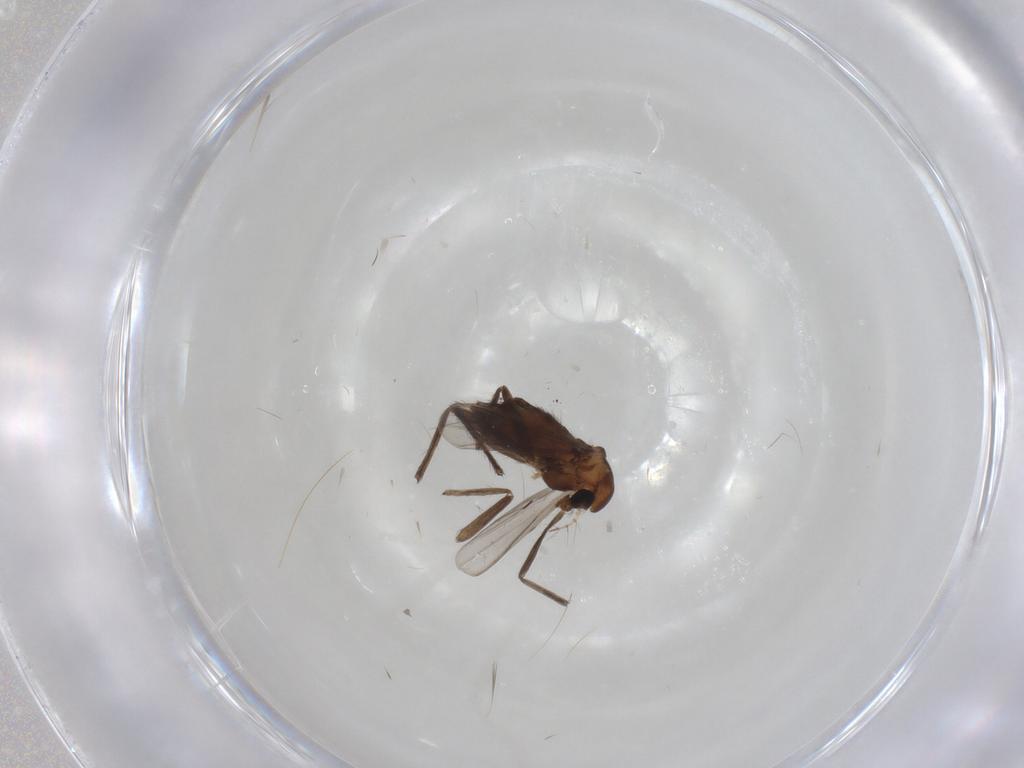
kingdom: Animalia
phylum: Arthropoda
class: Insecta
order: Diptera
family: Chironomidae
